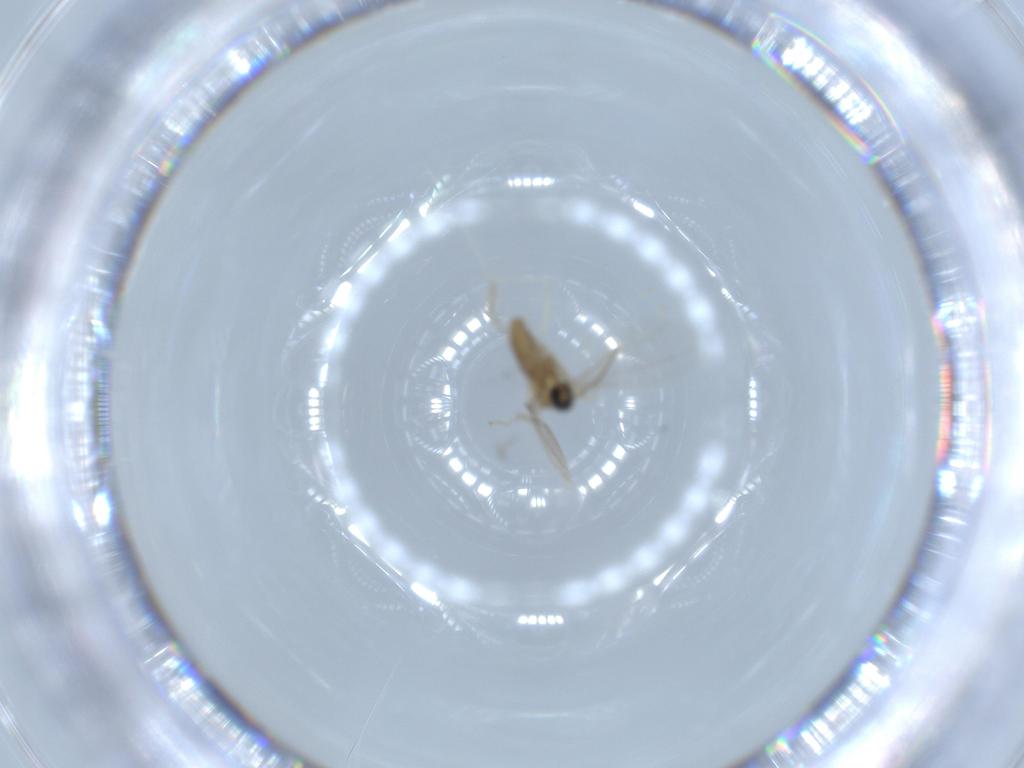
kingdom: Animalia
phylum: Arthropoda
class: Insecta
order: Diptera
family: Ceratopogonidae
